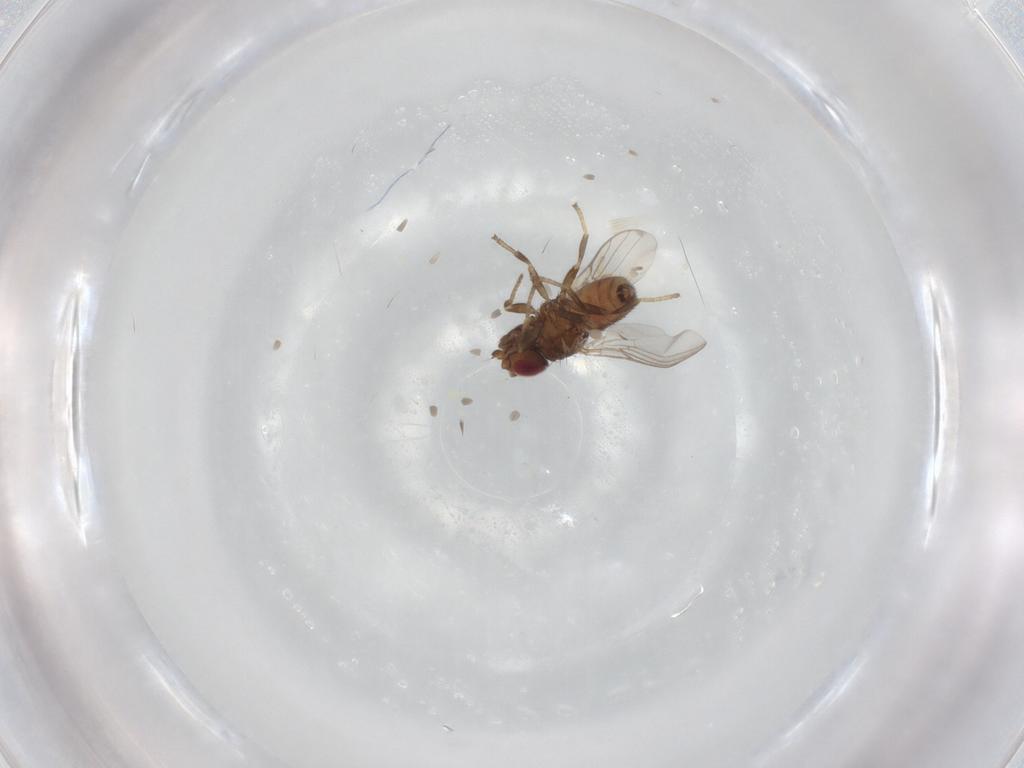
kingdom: Animalia
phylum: Arthropoda
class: Insecta
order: Diptera
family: Chloropidae
